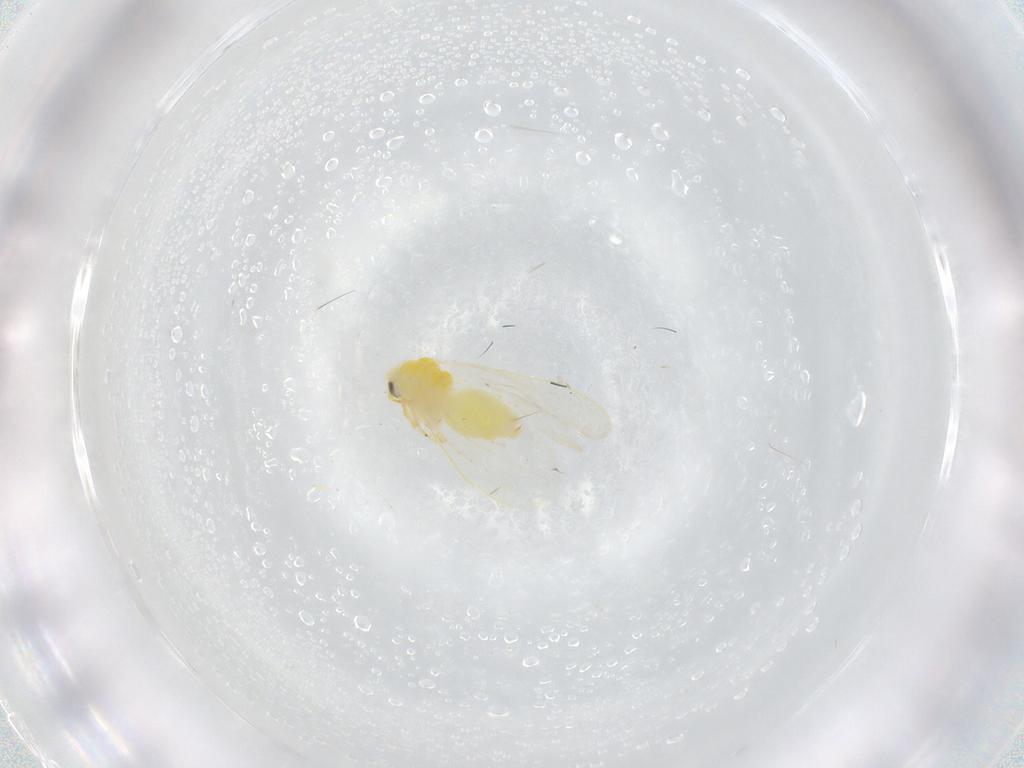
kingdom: Animalia
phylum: Arthropoda
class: Insecta
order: Hemiptera
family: Aleyrodidae
